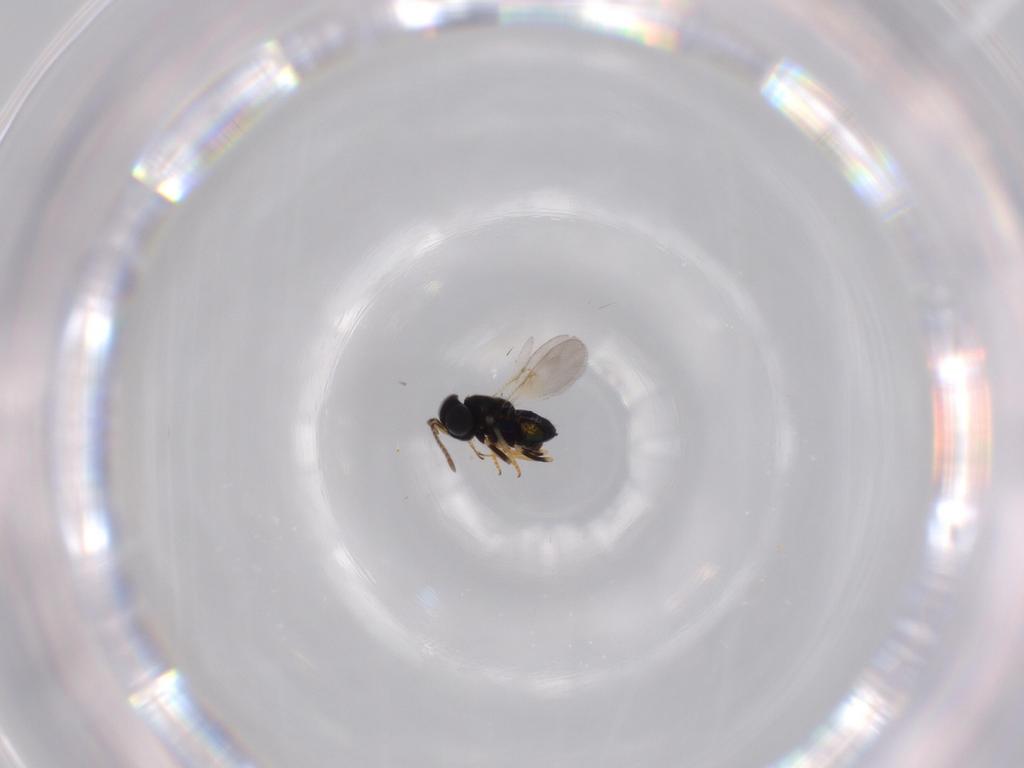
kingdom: Animalia
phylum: Arthropoda
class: Insecta
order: Hymenoptera
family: Formicidae
